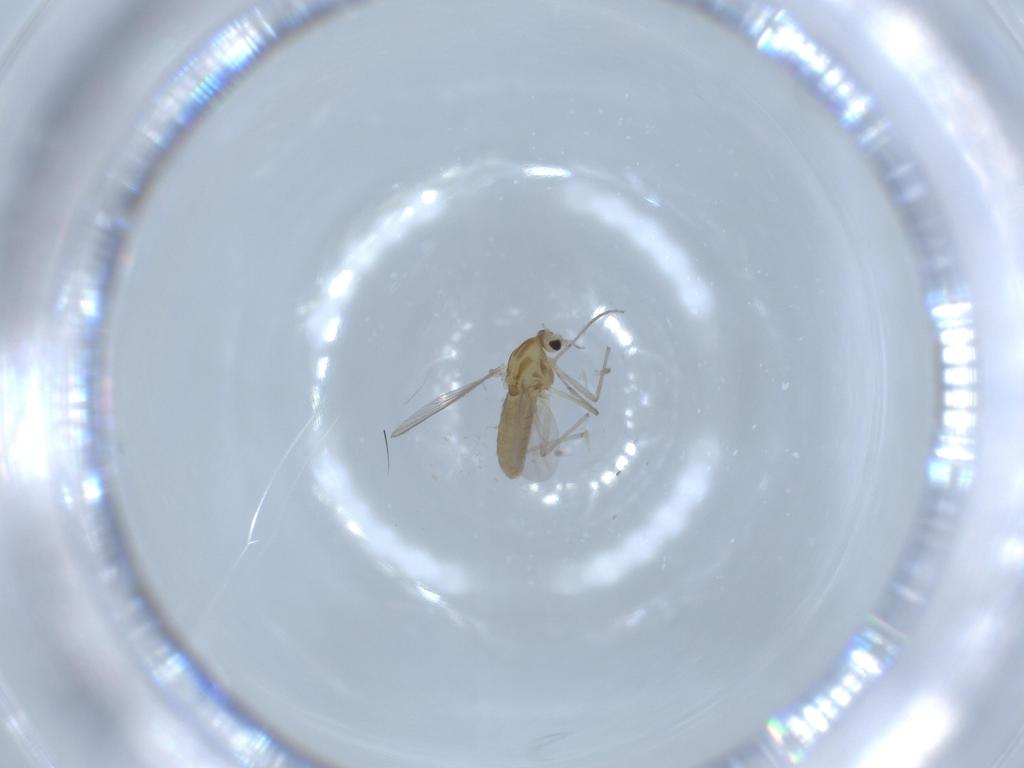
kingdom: Animalia
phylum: Arthropoda
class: Insecta
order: Diptera
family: Chironomidae
